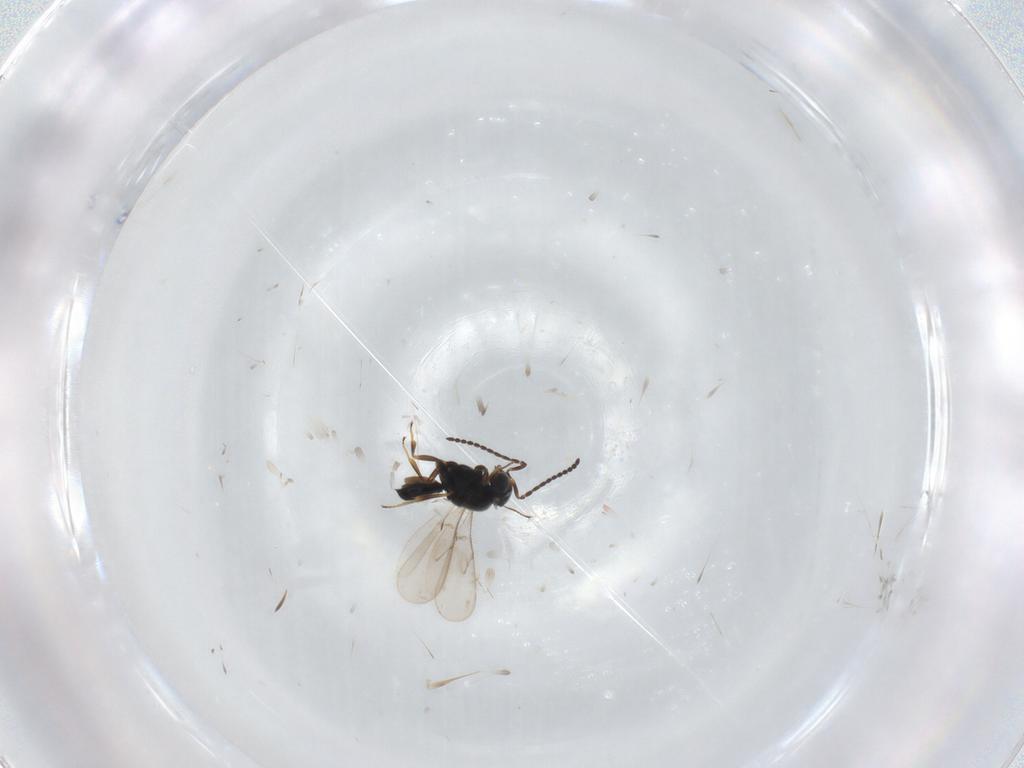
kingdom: Animalia
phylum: Arthropoda
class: Insecta
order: Hymenoptera
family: Scelionidae
